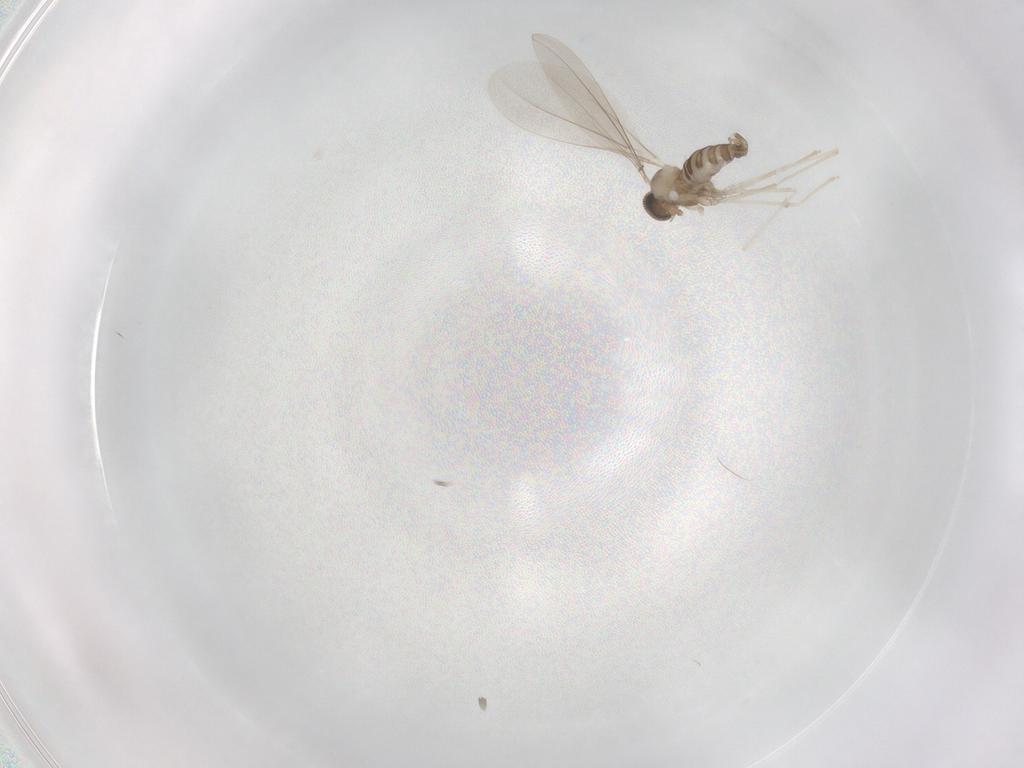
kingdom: Animalia
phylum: Arthropoda
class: Insecta
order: Diptera
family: Cecidomyiidae
